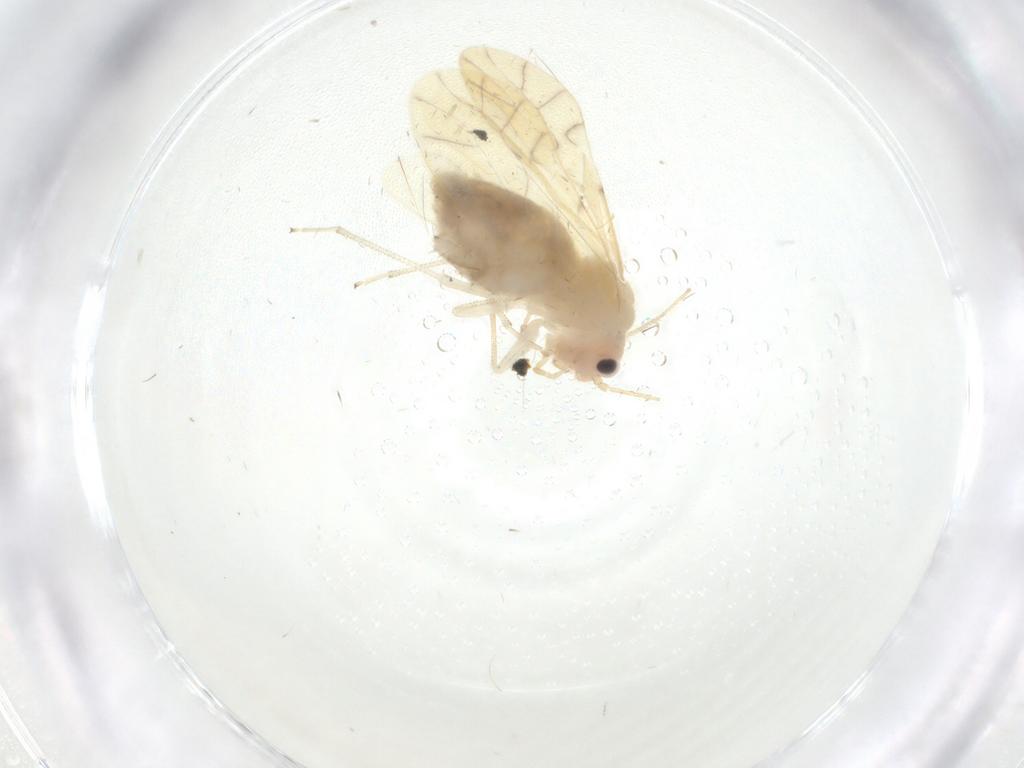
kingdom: Animalia
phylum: Arthropoda
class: Insecta
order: Psocodea
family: Caeciliusidae
